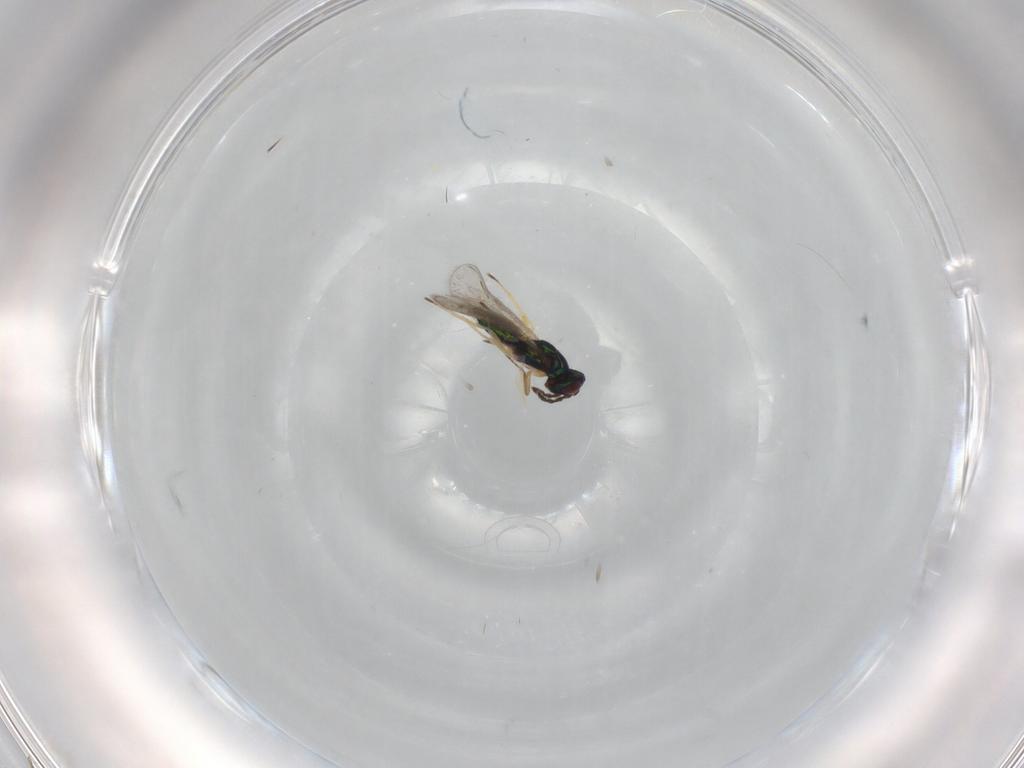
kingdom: Animalia
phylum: Arthropoda
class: Insecta
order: Hymenoptera
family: Eulophidae
